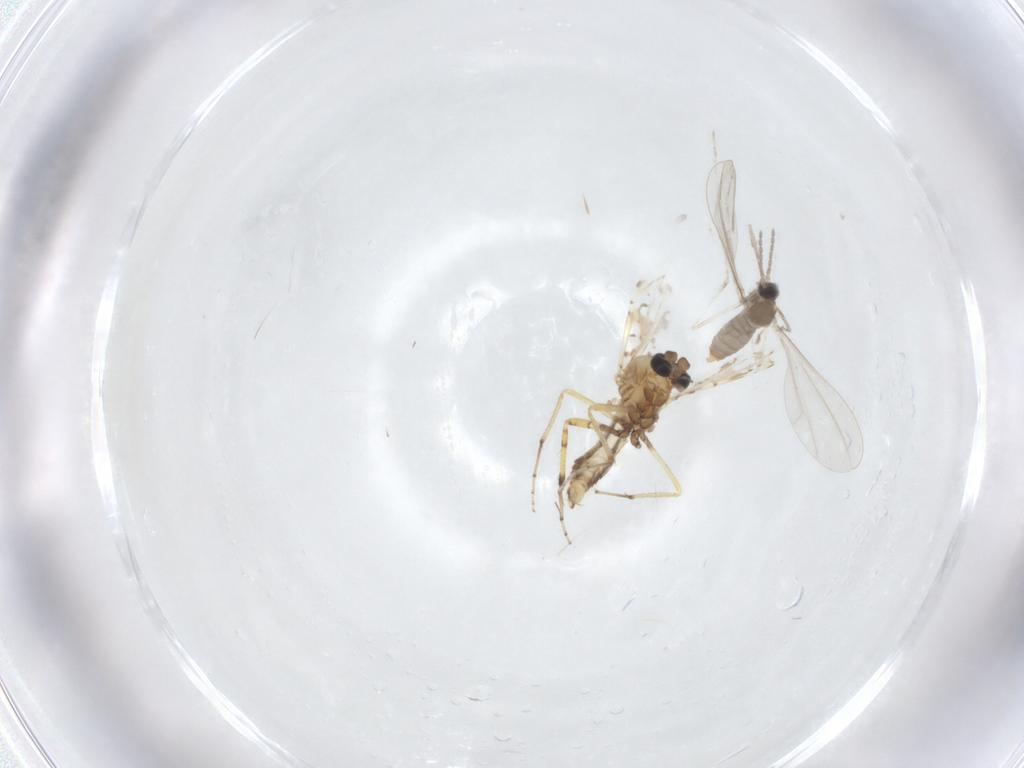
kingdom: Animalia
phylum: Arthropoda
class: Insecta
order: Diptera
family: Ceratopogonidae
